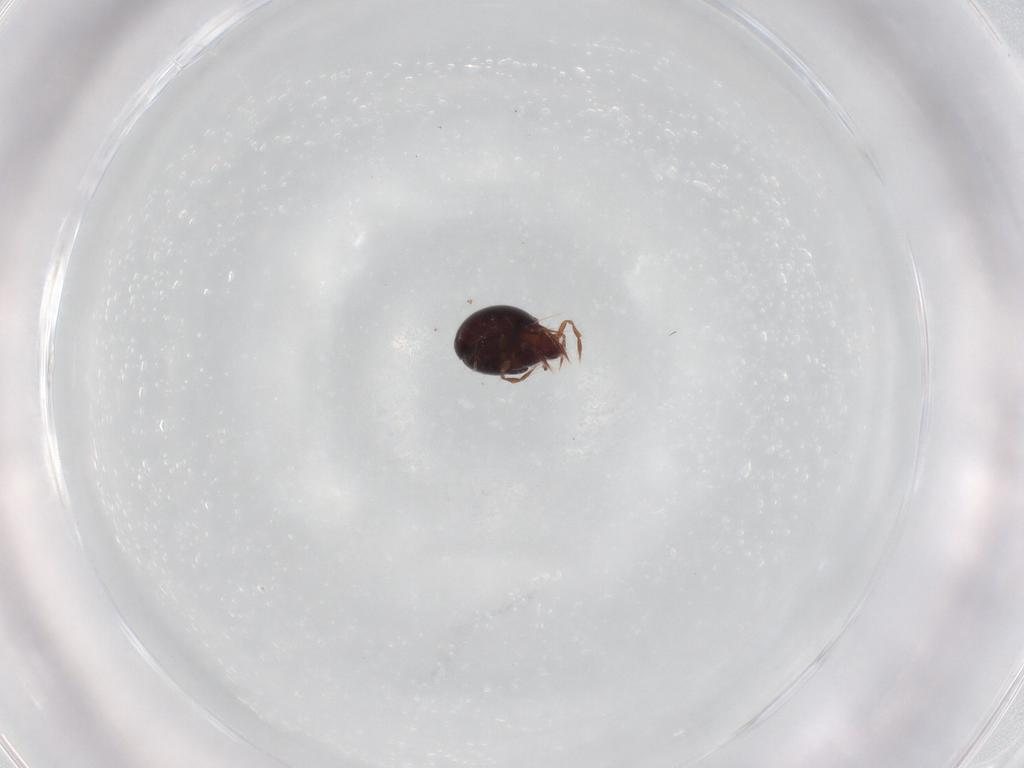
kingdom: Animalia
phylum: Arthropoda
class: Arachnida
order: Sarcoptiformes
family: Ceratoppiidae
